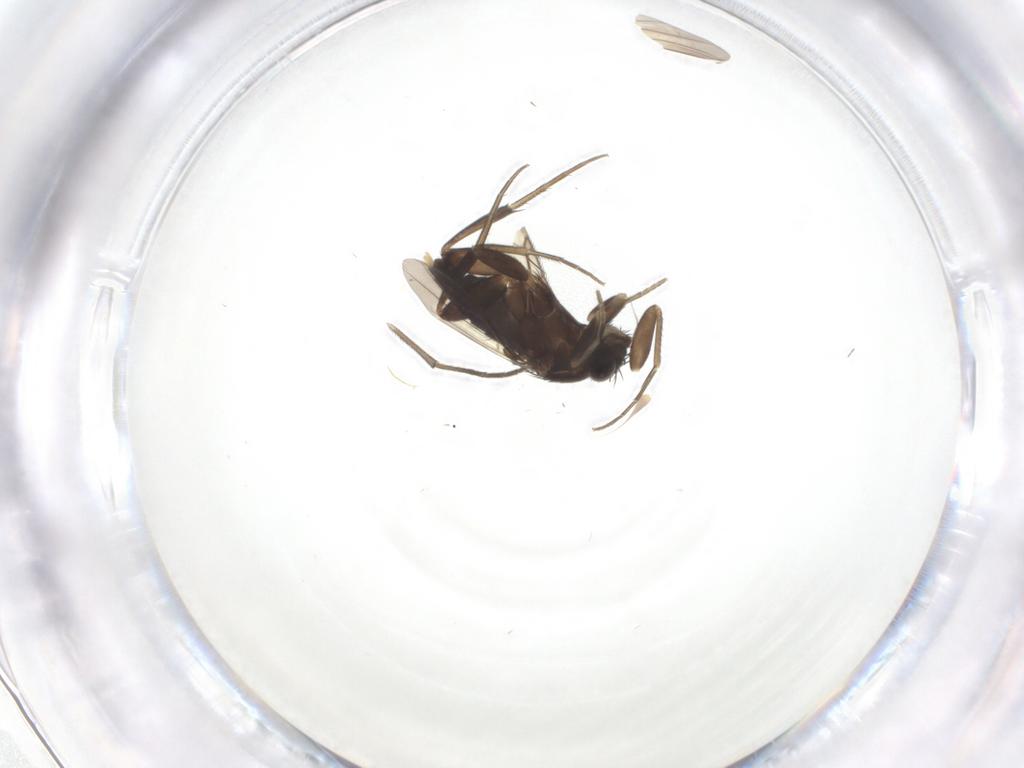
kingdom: Animalia
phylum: Arthropoda
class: Insecta
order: Diptera
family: Phoridae
